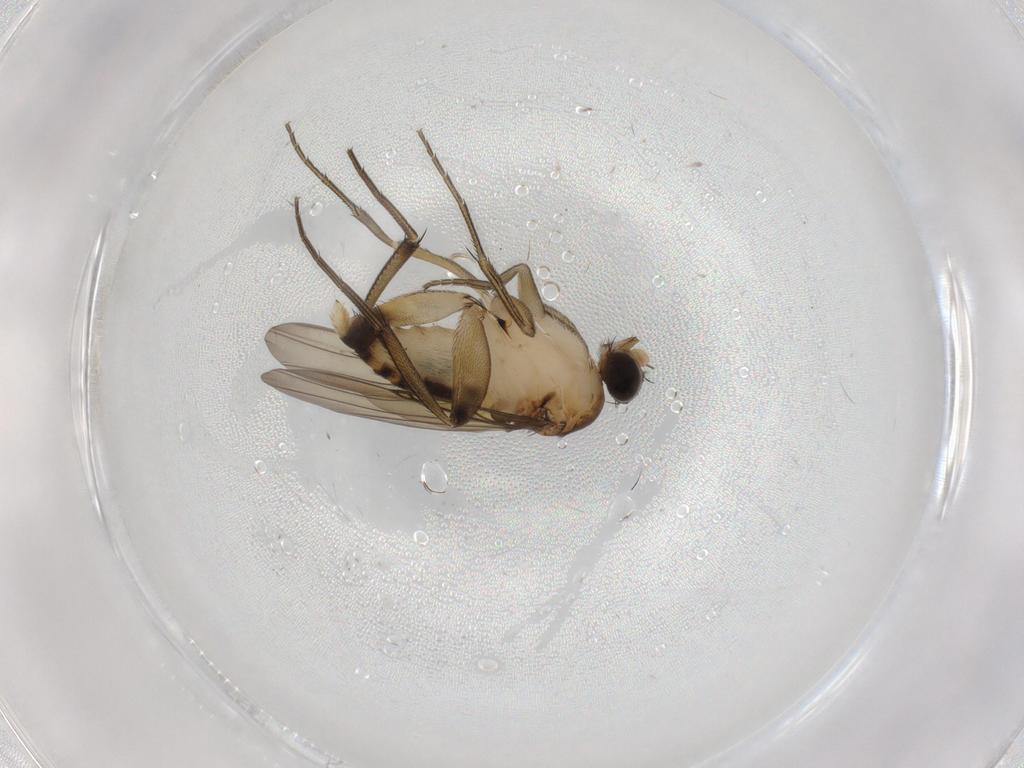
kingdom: Animalia
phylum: Arthropoda
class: Insecta
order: Diptera
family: Phoridae
